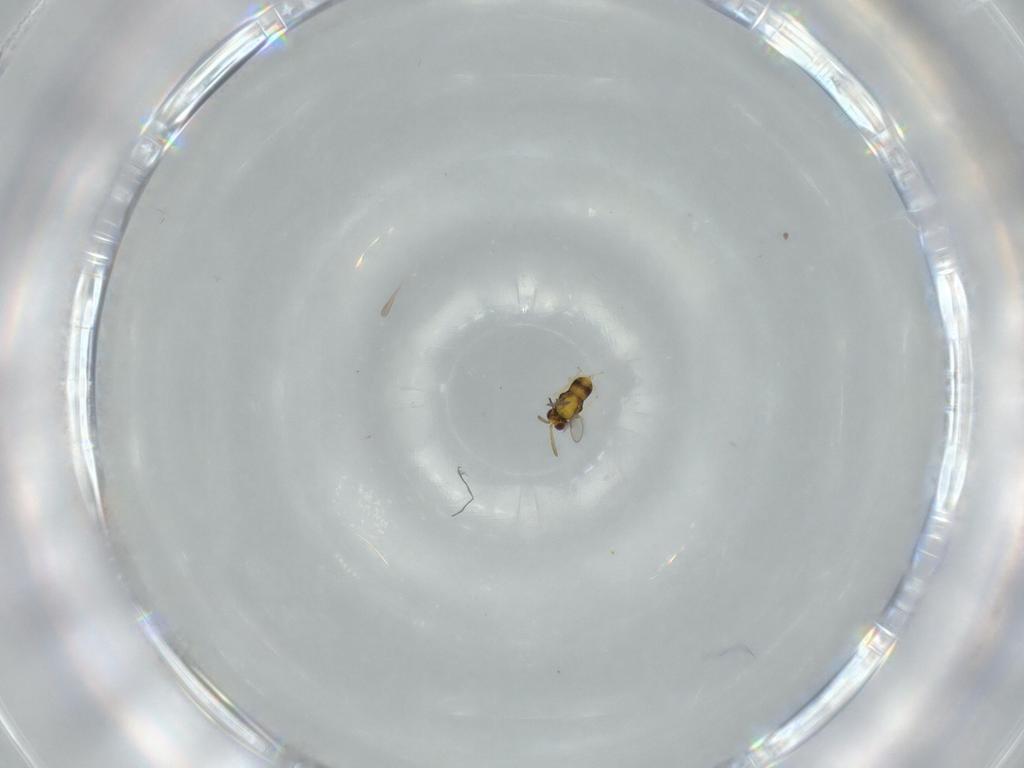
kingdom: Animalia
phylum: Arthropoda
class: Insecta
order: Hymenoptera
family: Aphelinidae
